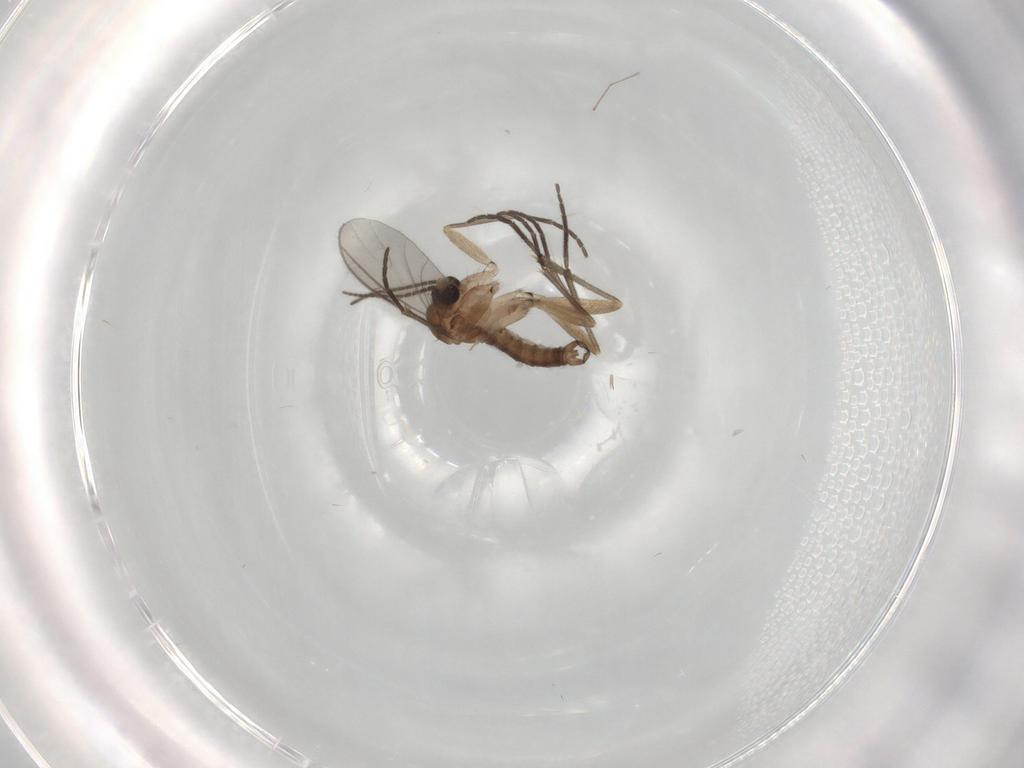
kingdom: Animalia
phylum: Arthropoda
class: Insecta
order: Diptera
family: Sciaridae
